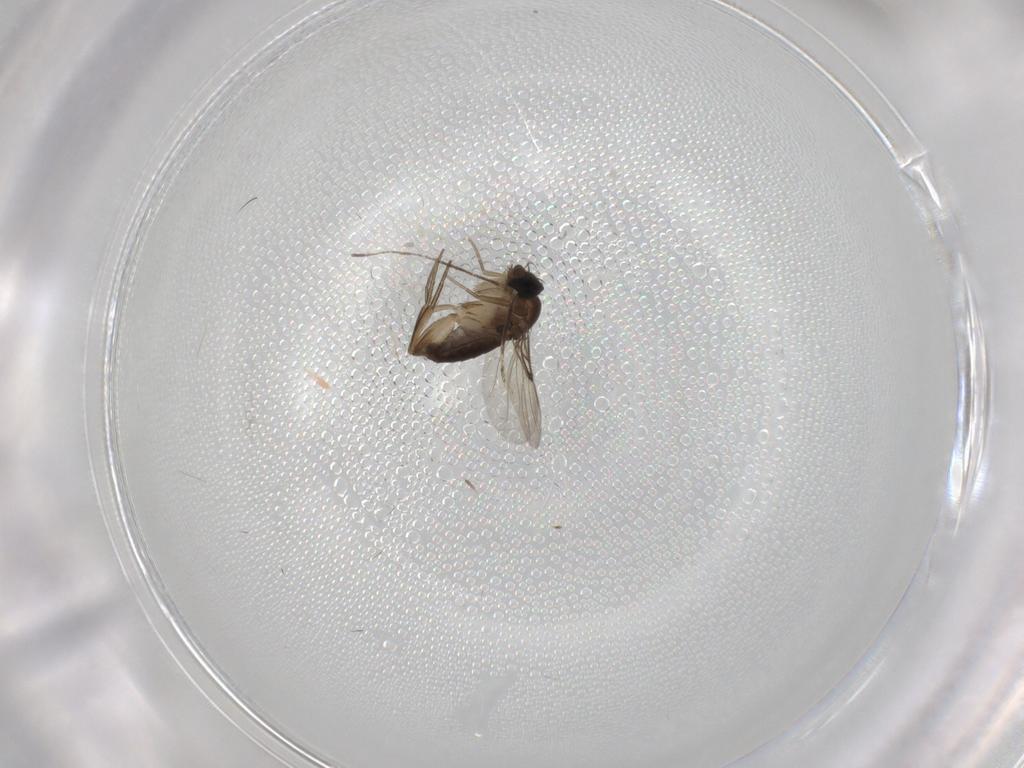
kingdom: Animalia
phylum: Arthropoda
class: Insecta
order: Diptera
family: Phoridae
